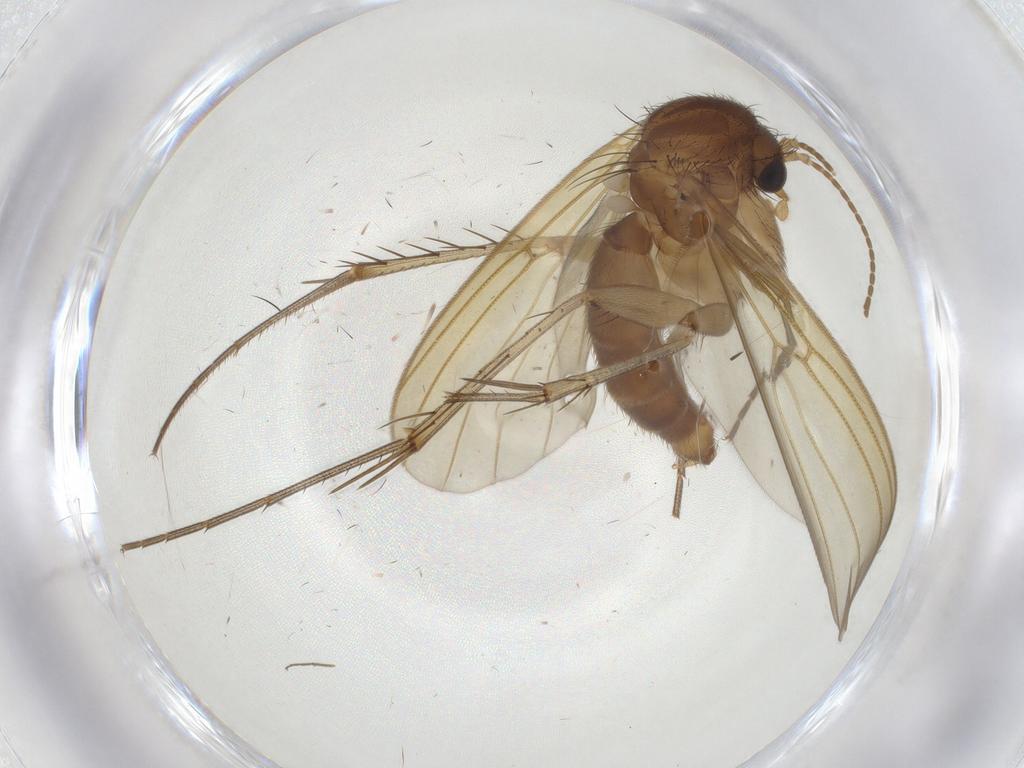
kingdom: Animalia
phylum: Arthropoda
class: Insecta
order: Diptera
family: Mycetophilidae
